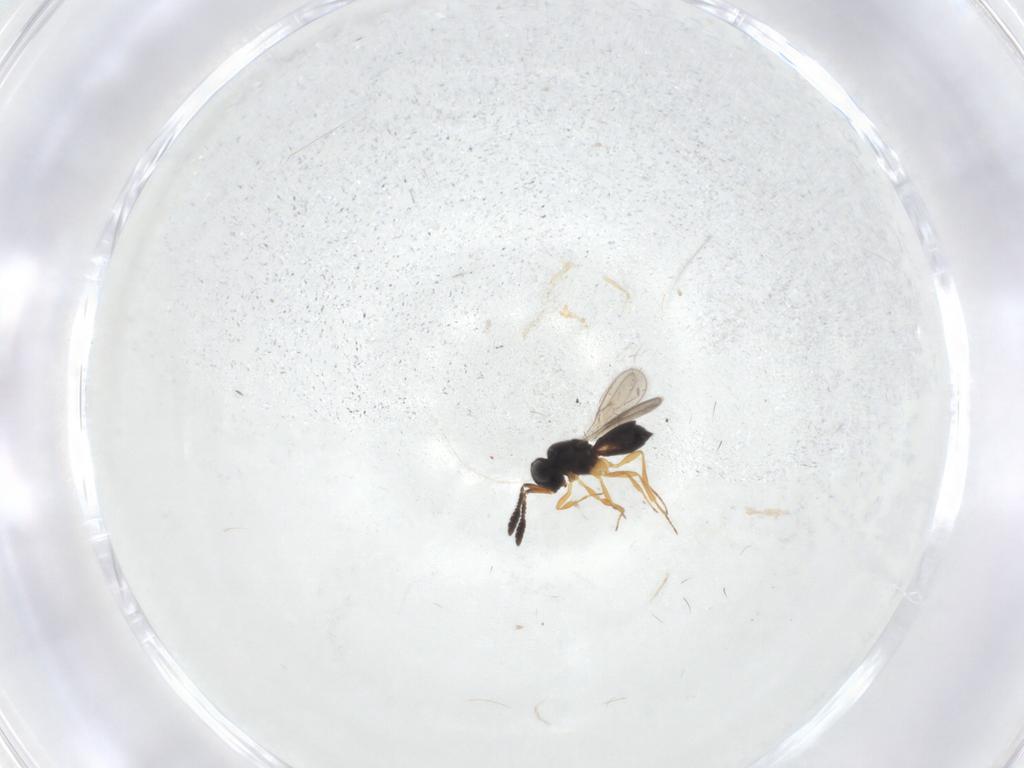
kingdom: Animalia
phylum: Arthropoda
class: Insecta
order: Hymenoptera
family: Scelionidae
